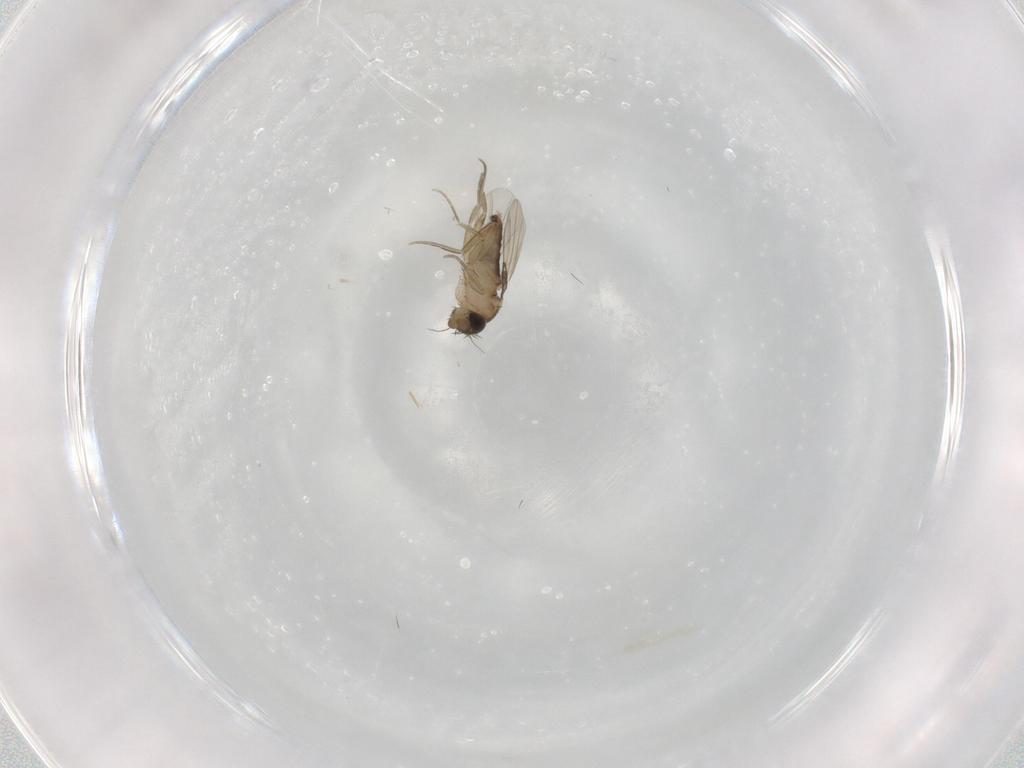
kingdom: Animalia
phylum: Arthropoda
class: Insecta
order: Diptera
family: Phoridae
